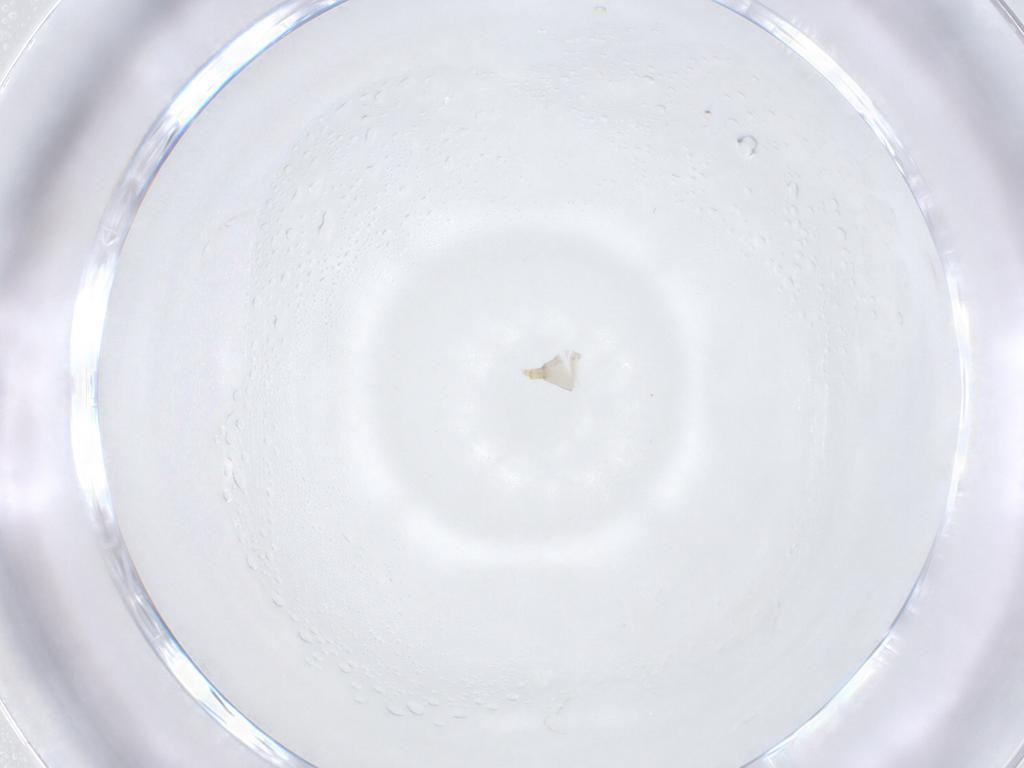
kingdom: Animalia
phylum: Arthropoda
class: Insecta
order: Diptera
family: Cecidomyiidae
